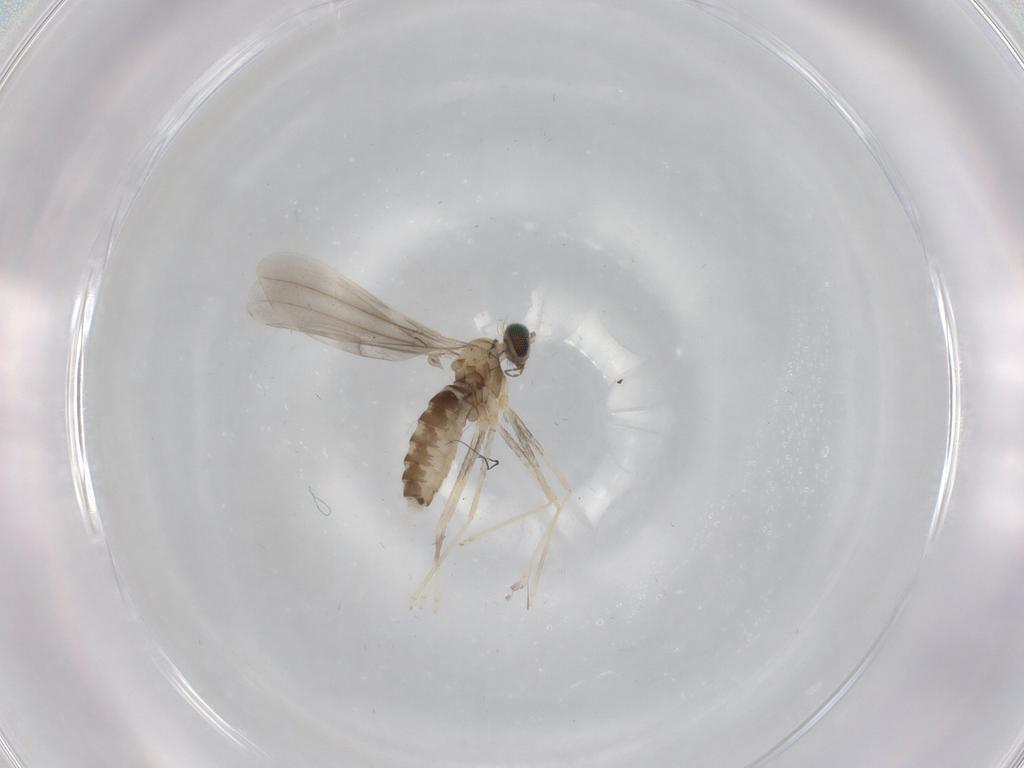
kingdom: Animalia
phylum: Arthropoda
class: Insecta
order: Diptera
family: Cecidomyiidae
